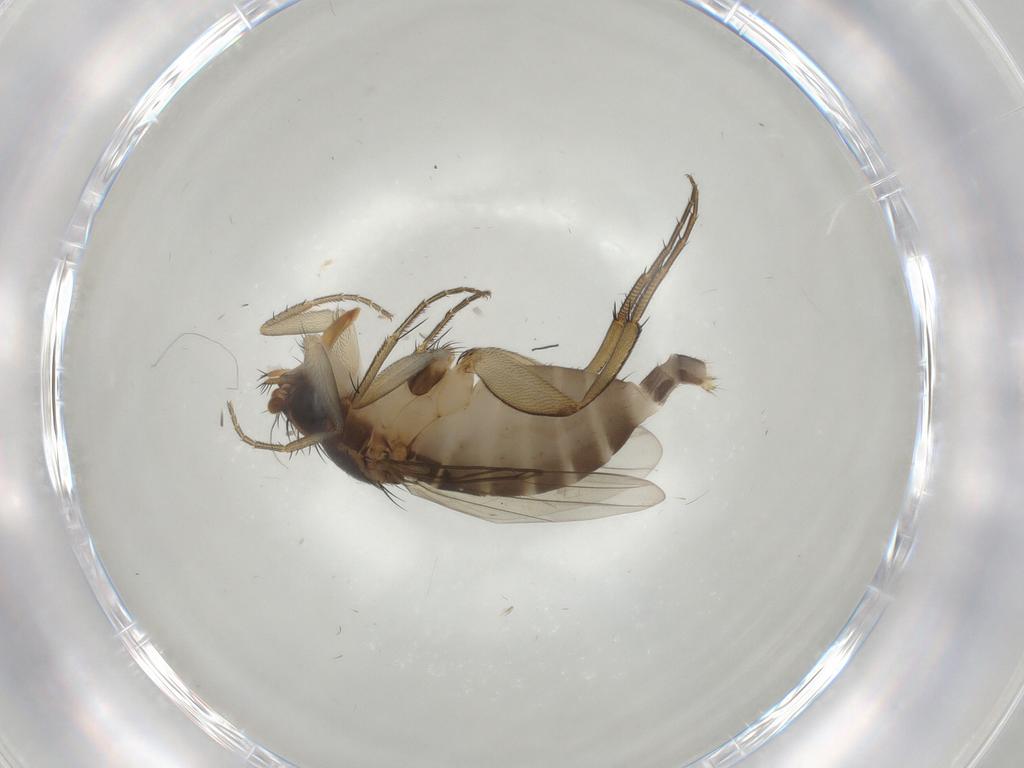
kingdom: Animalia
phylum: Arthropoda
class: Insecta
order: Diptera
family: Phoridae
